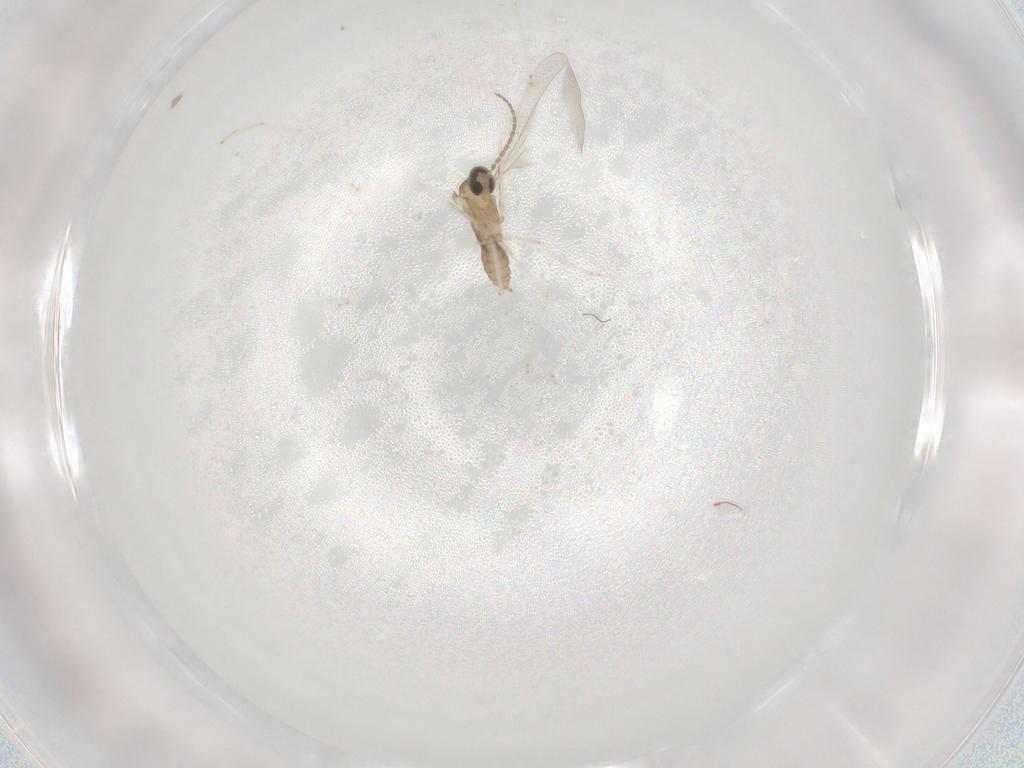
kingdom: Animalia
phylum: Arthropoda
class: Insecta
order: Diptera
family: Cecidomyiidae
